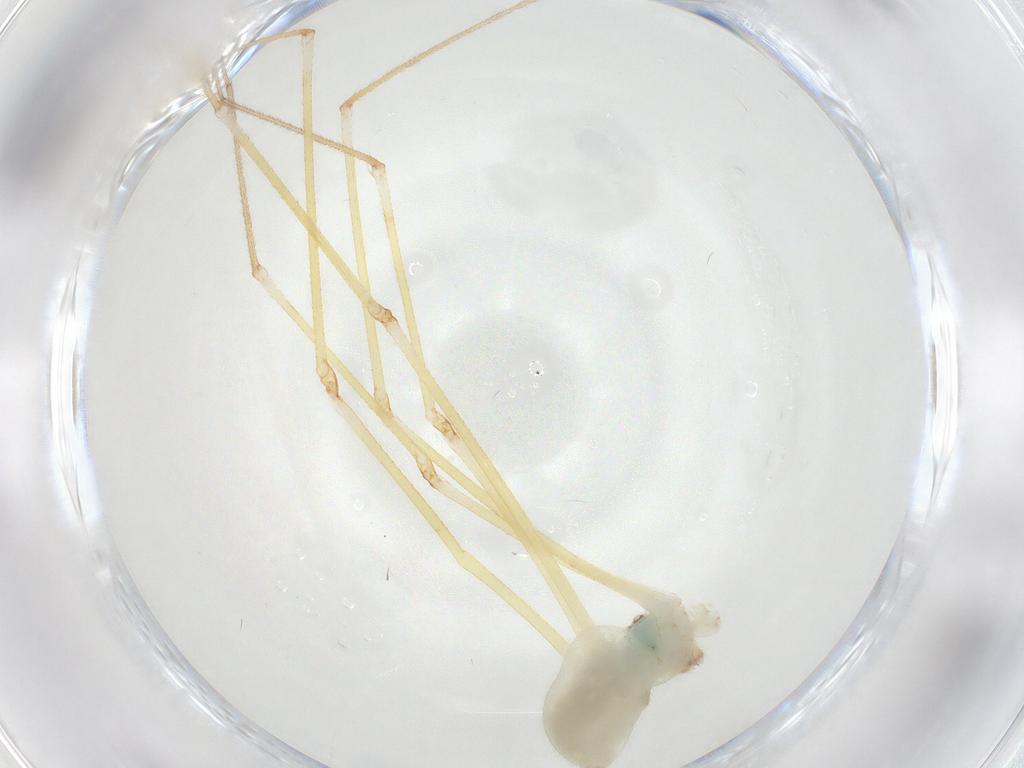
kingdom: Animalia
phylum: Arthropoda
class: Arachnida
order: Araneae
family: Pholcidae
